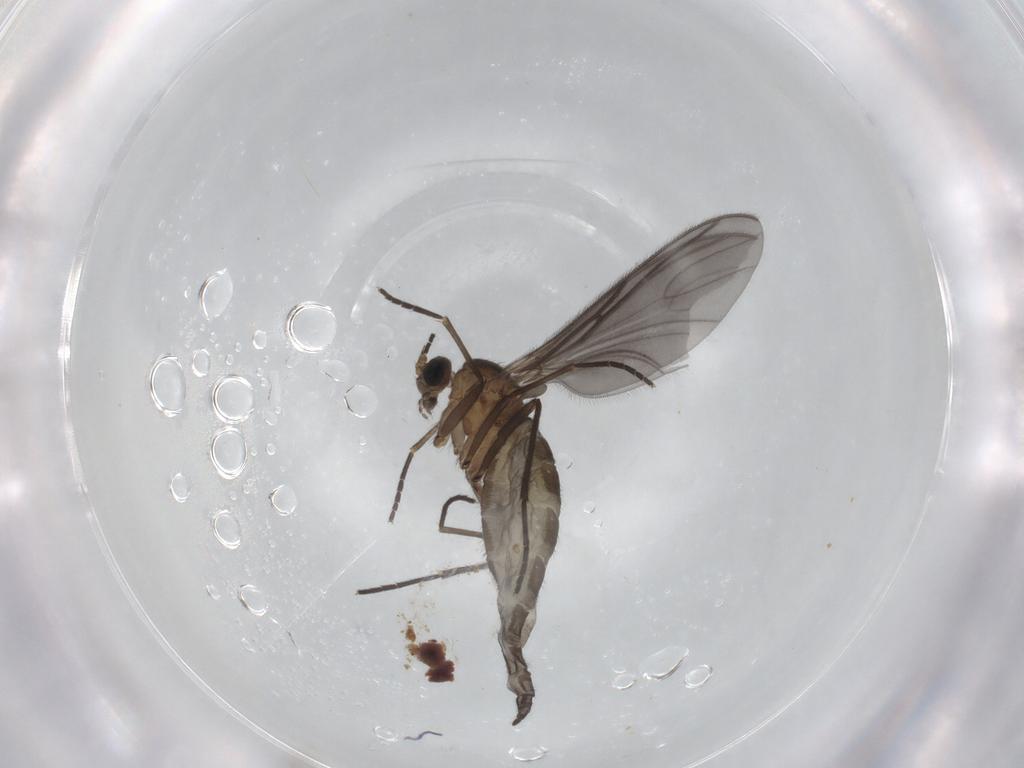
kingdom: Animalia
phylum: Arthropoda
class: Insecta
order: Diptera
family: Sciaridae
